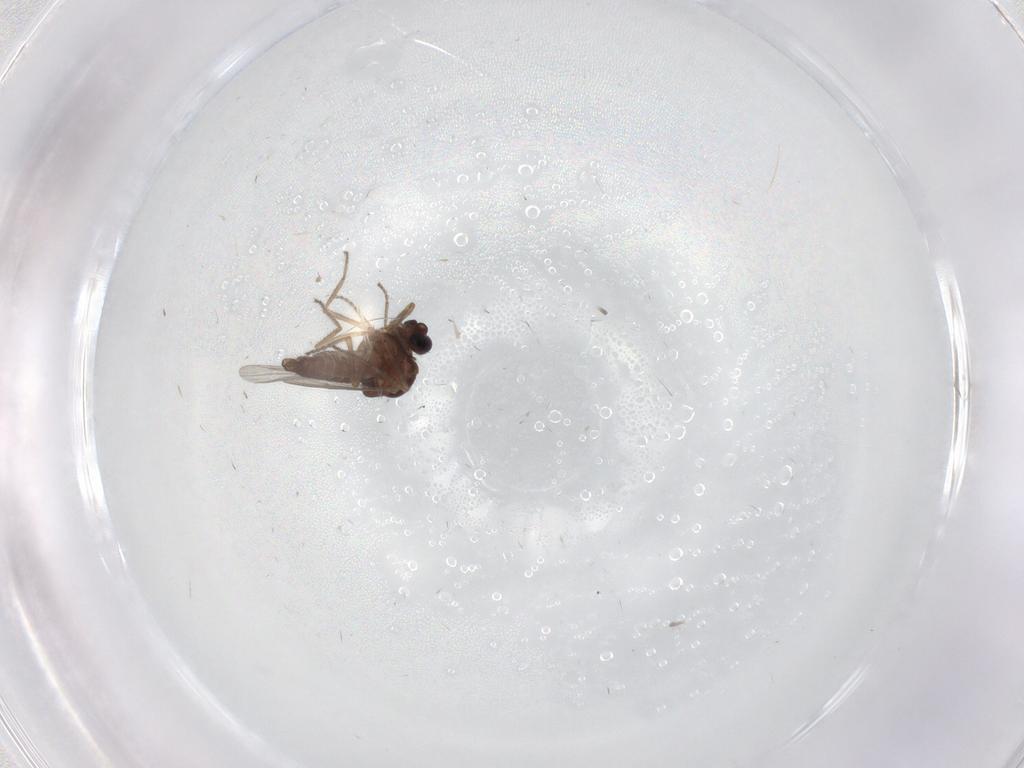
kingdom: Animalia
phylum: Arthropoda
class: Insecta
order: Diptera
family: Ceratopogonidae
